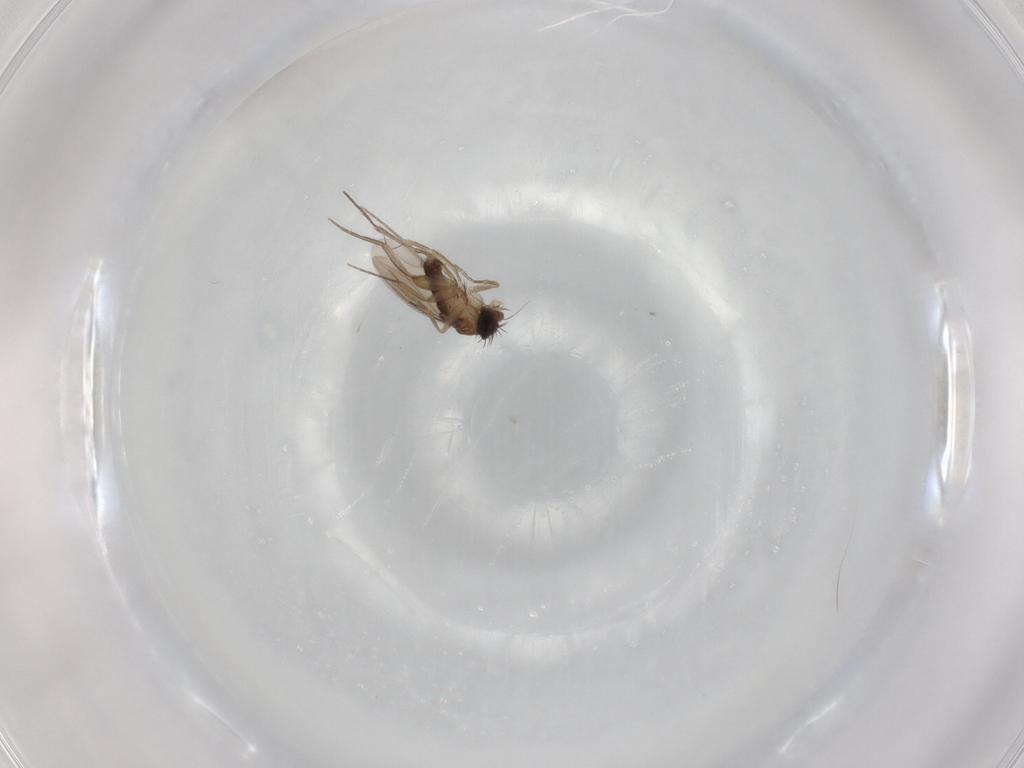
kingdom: Animalia
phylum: Arthropoda
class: Insecta
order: Diptera
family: Phoridae
